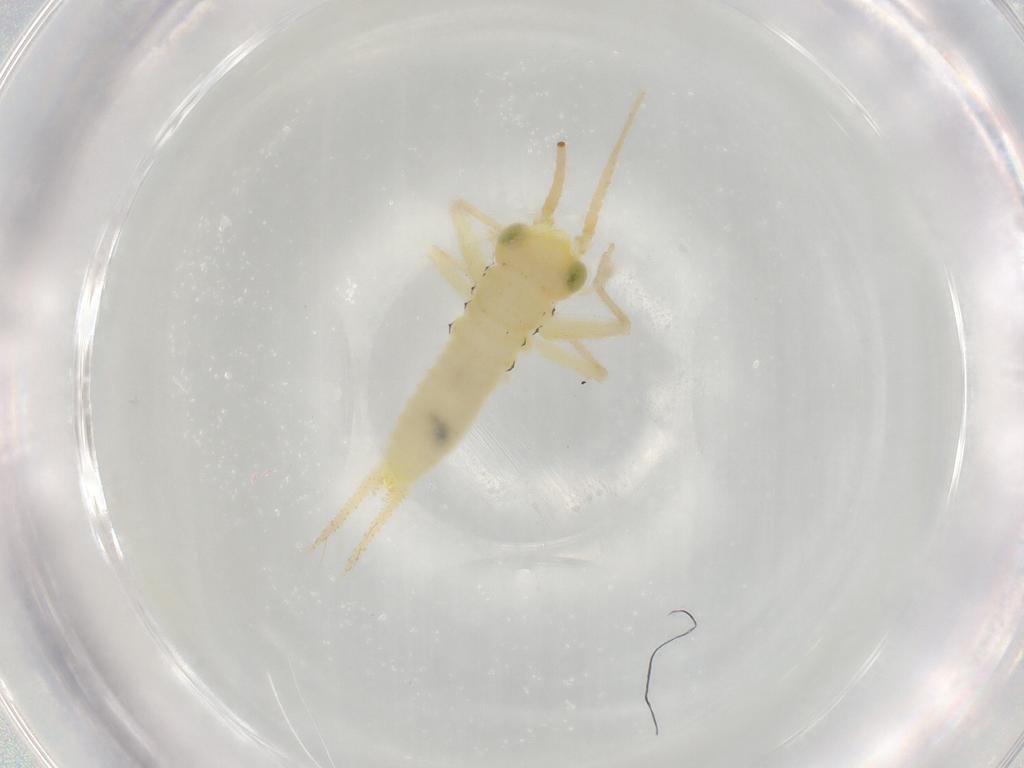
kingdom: Animalia
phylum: Arthropoda
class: Insecta
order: Orthoptera
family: Trigonidiidae
